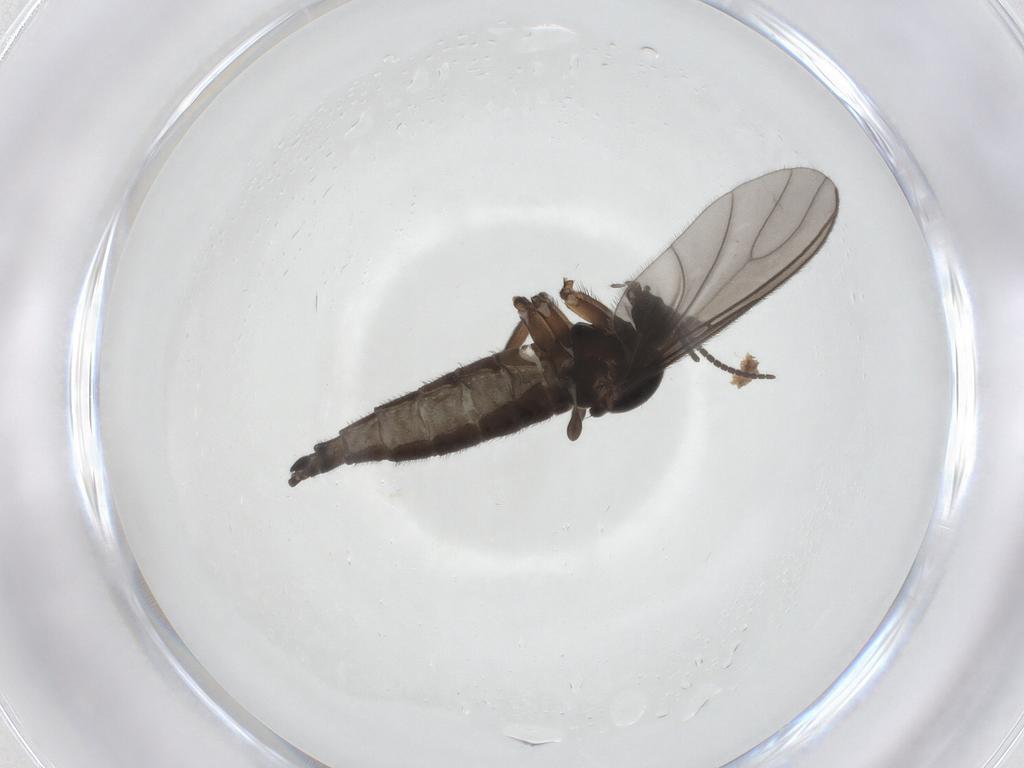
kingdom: Animalia
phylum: Arthropoda
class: Insecta
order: Diptera
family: Sciaridae
